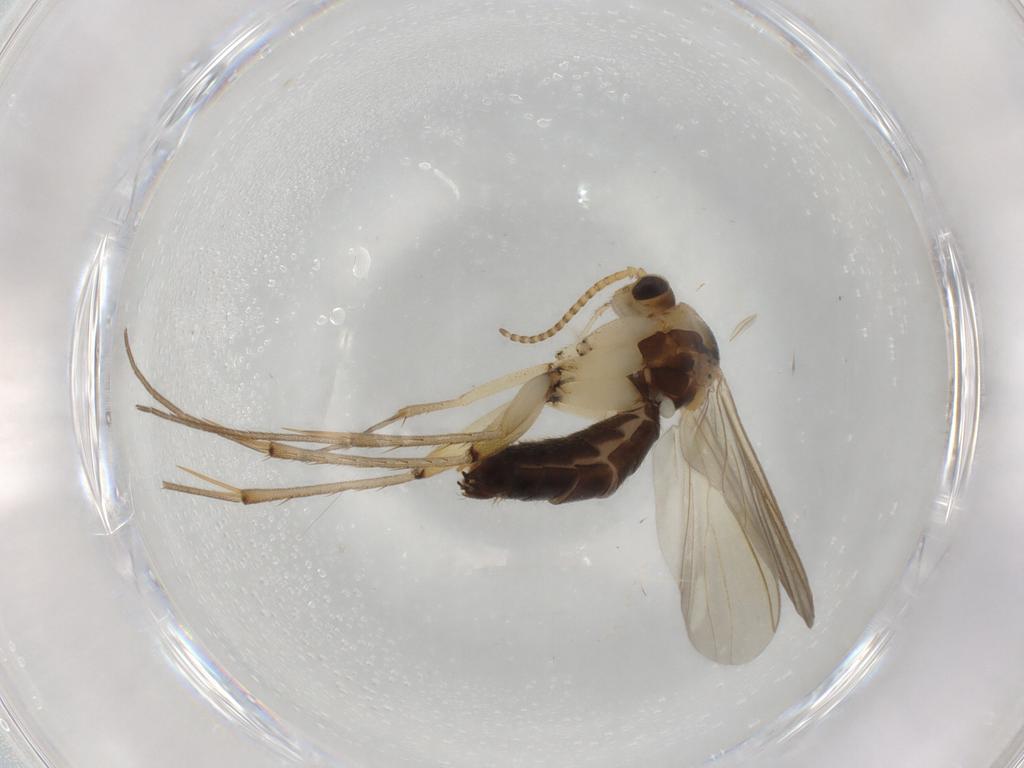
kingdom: Animalia
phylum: Arthropoda
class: Insecta
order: Diptera
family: Mycetophilidae
